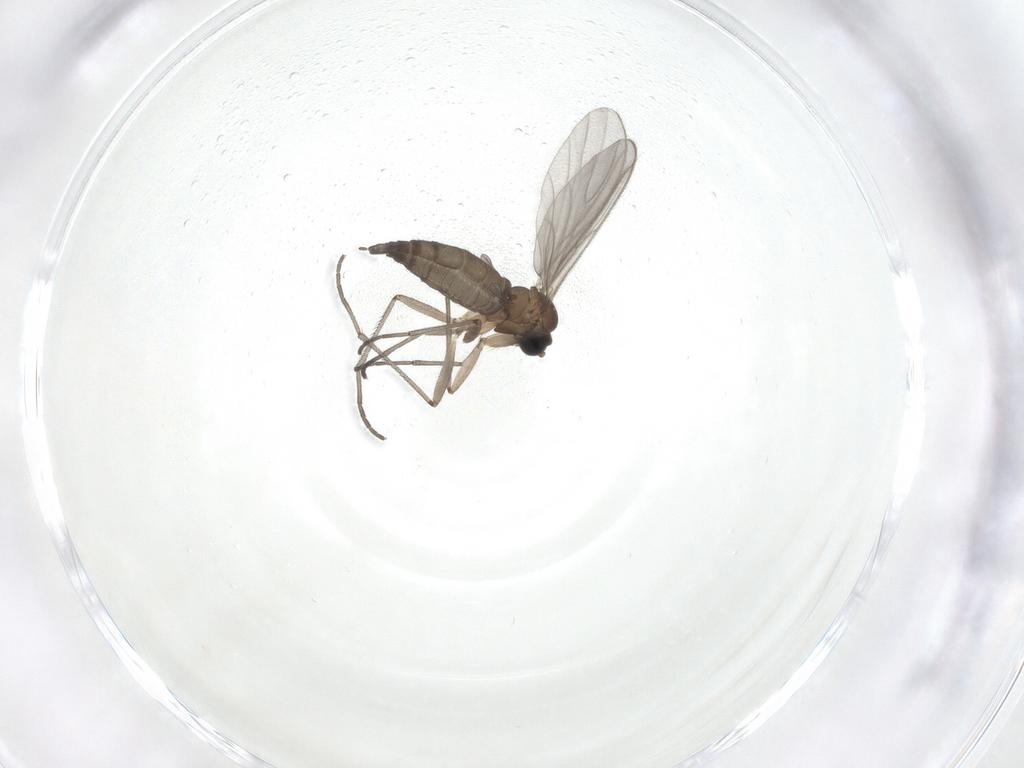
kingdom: Animalia
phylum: Arthropoda
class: Insecta
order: Diptera
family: Sciaridae
